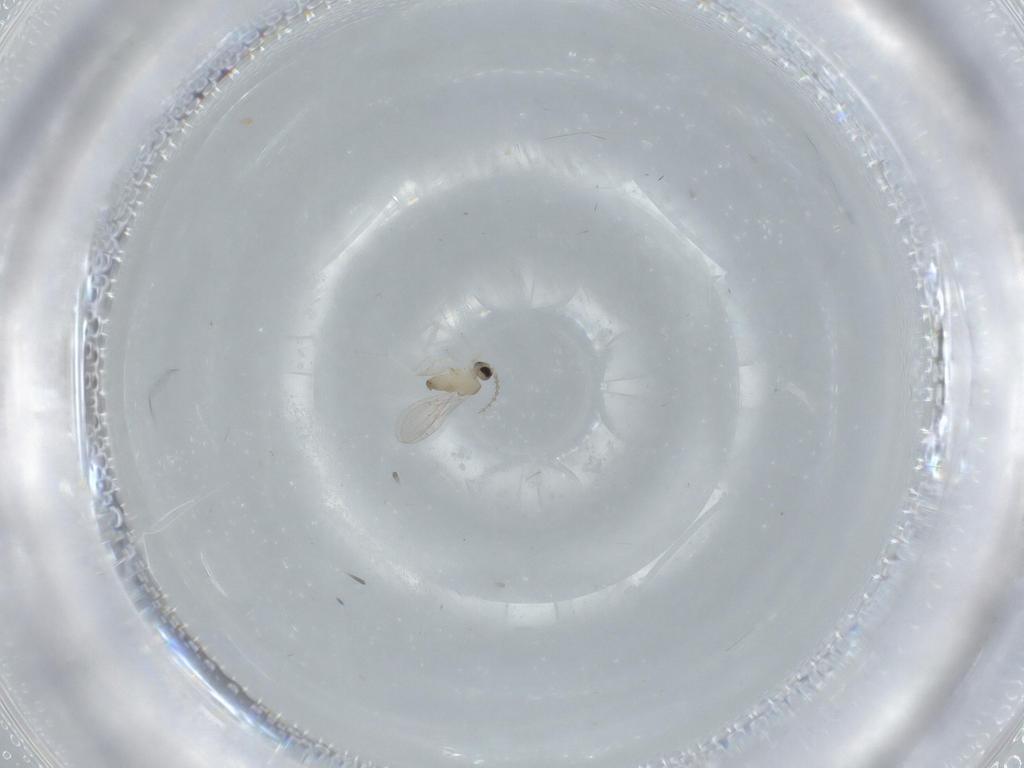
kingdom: Animalia
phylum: Arthropoda
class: Insecta
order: Diptera
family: Cecidomyiidae
